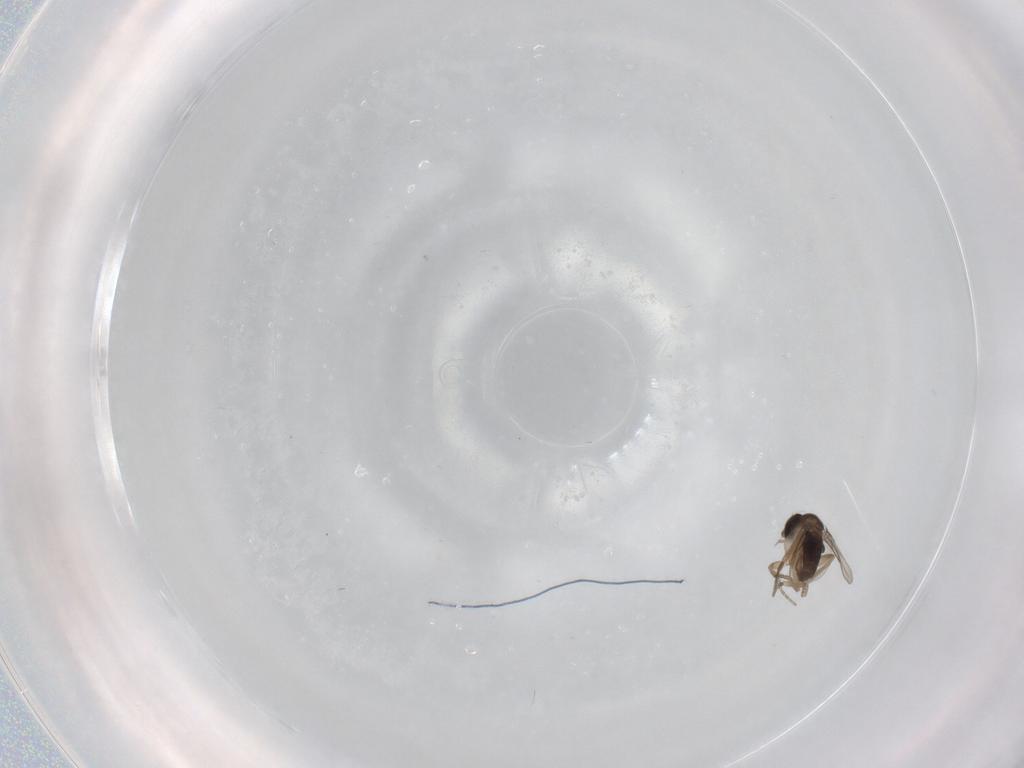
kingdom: Animalia
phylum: Arthropoda
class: Insecta
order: Diptera
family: Phoridae
